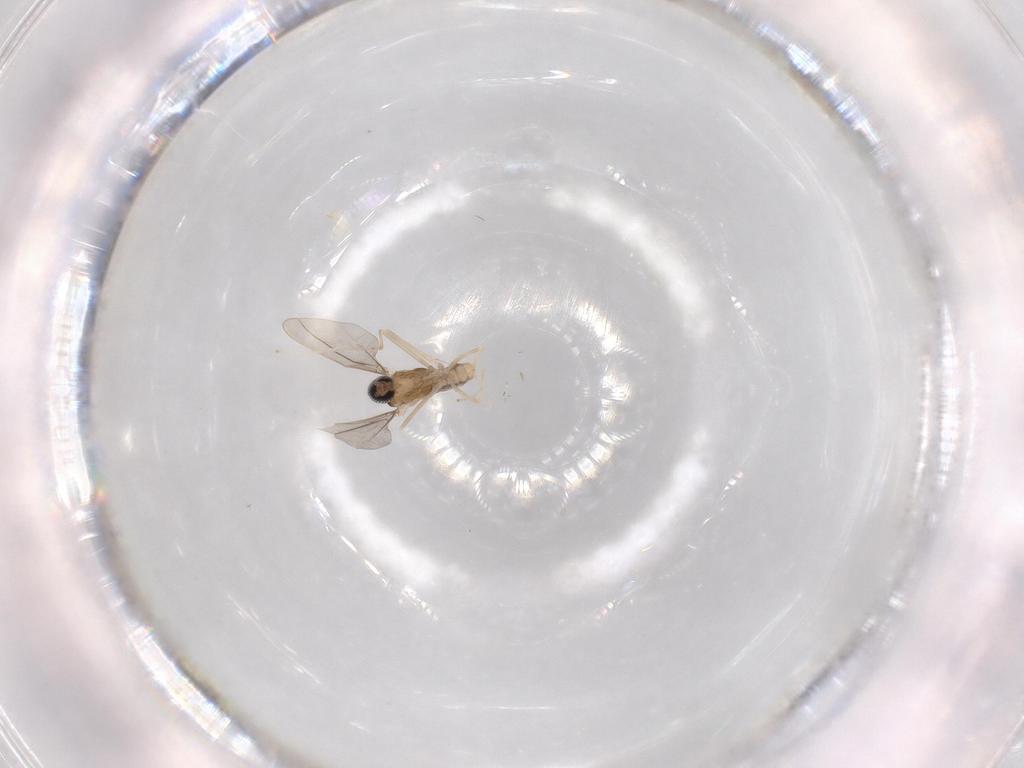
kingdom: Animalia
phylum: Arthropoda
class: Insecta
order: Diptera
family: Cecidomyiidae
